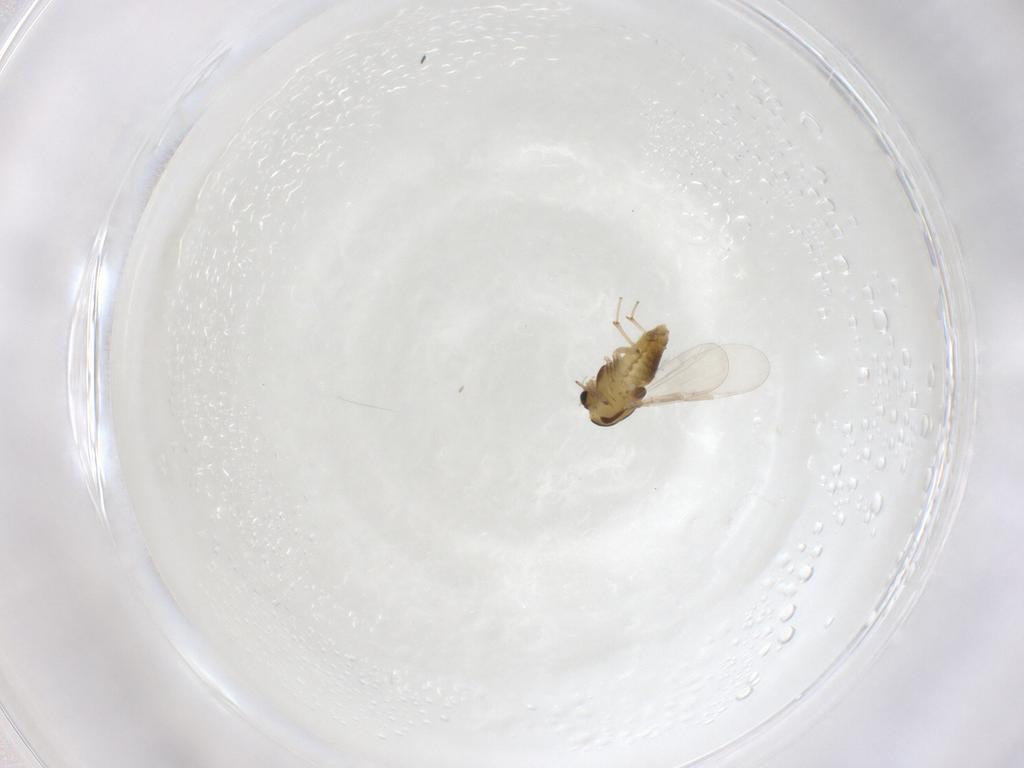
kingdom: Animalia
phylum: Arthropoda
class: Insecta
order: Diptera
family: Chironomidae
